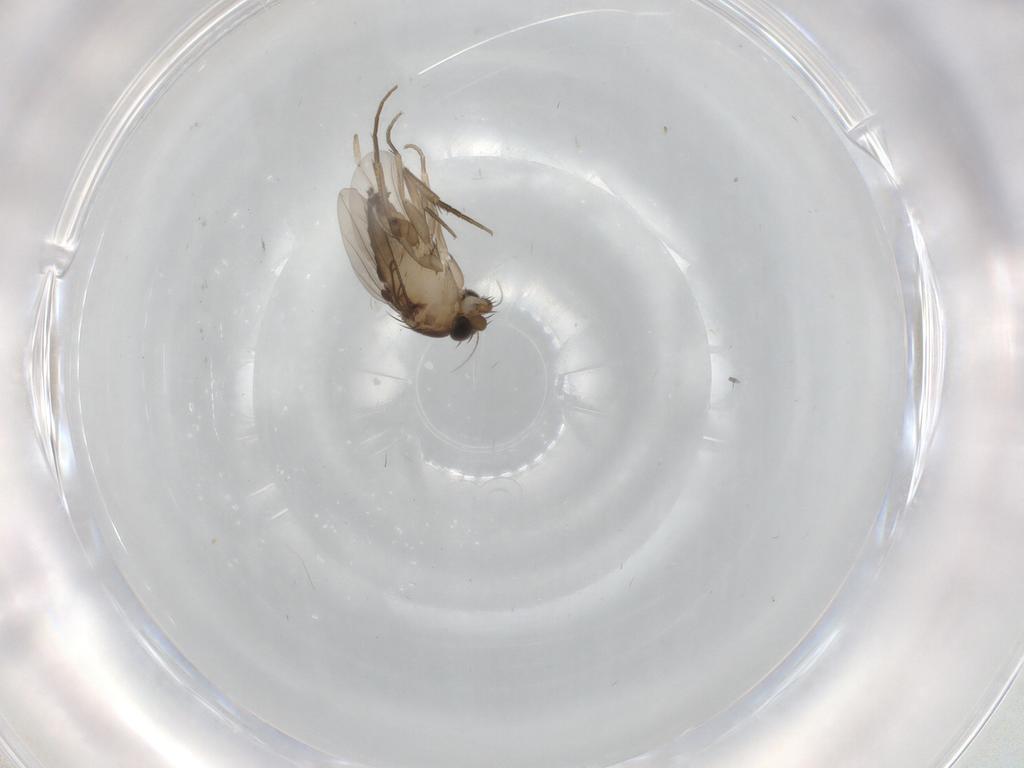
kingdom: Animalia
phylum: Arthropoda
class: Insecta
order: Diptera
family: Phoridae
